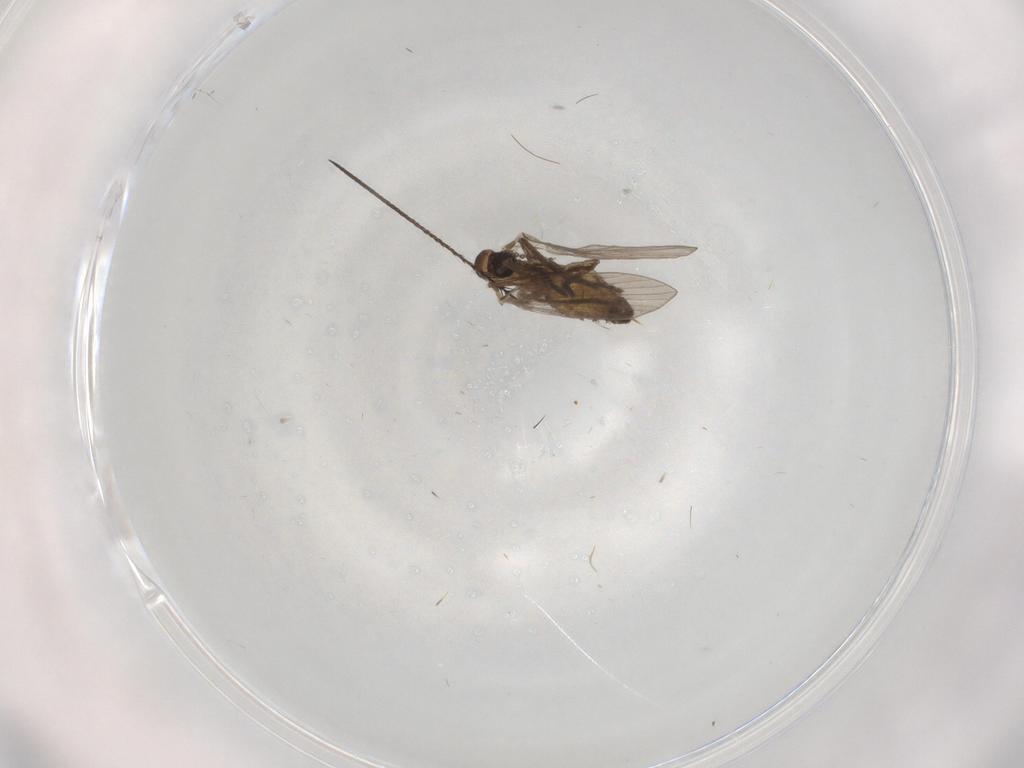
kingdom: Animalia
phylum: Arthropoda
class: Insecta
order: Diptera
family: Psychodidae
